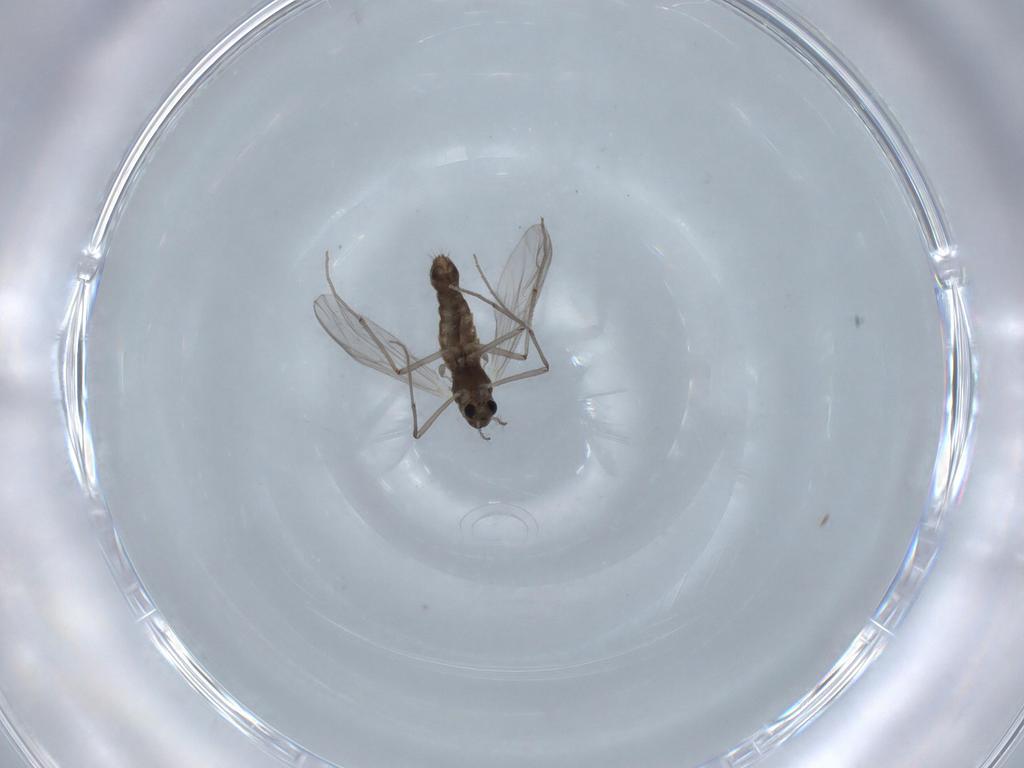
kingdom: Animalia
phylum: Arthropoda
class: Insecta
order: Diptera
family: Chironomidae
